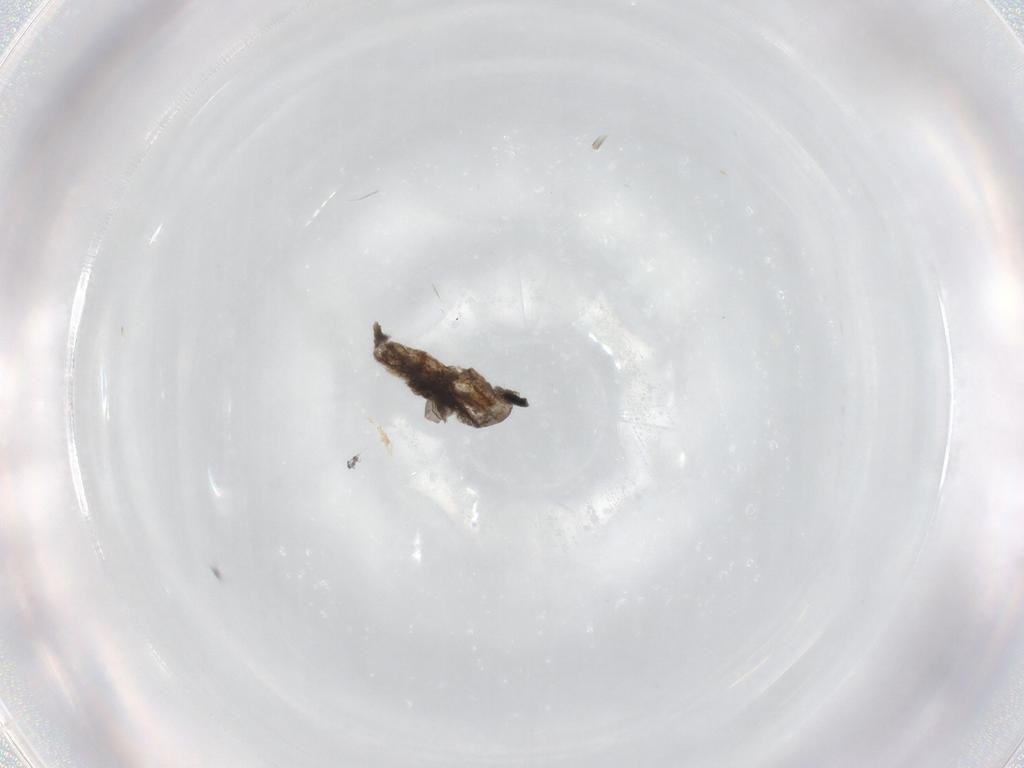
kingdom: Animalia
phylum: Arthropoda
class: Insecta
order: Diptera
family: Cecidomyiidae
